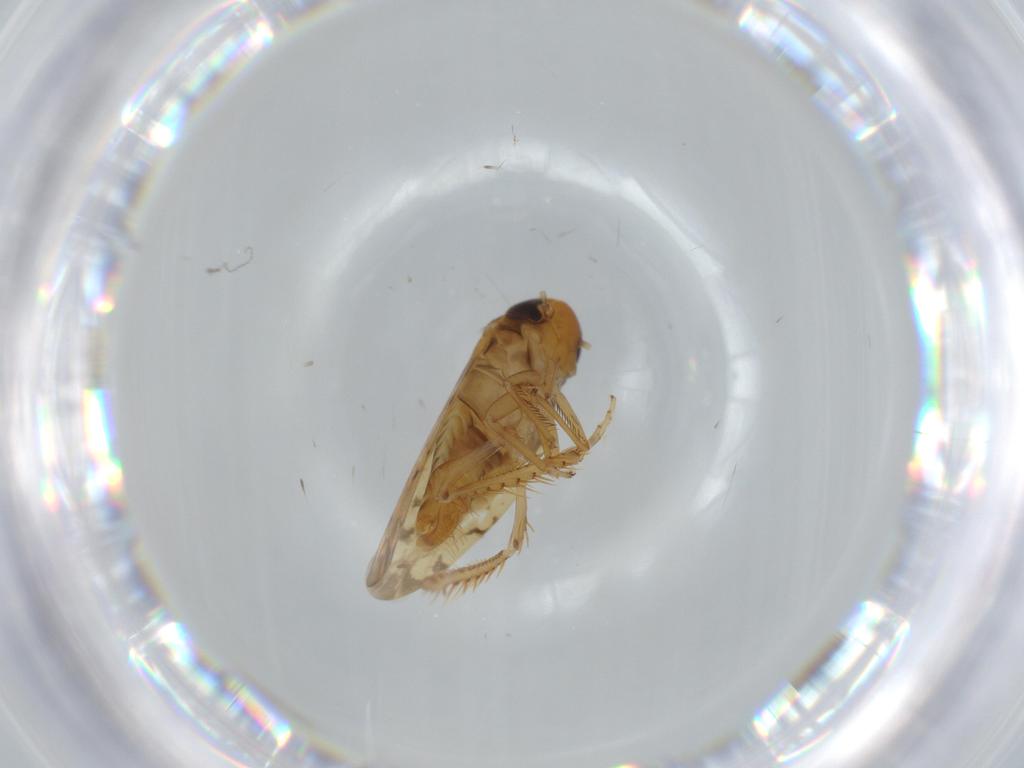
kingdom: Animalia
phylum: Arthropoda
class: Insecta
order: Hemiptera
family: Cicadellidae
